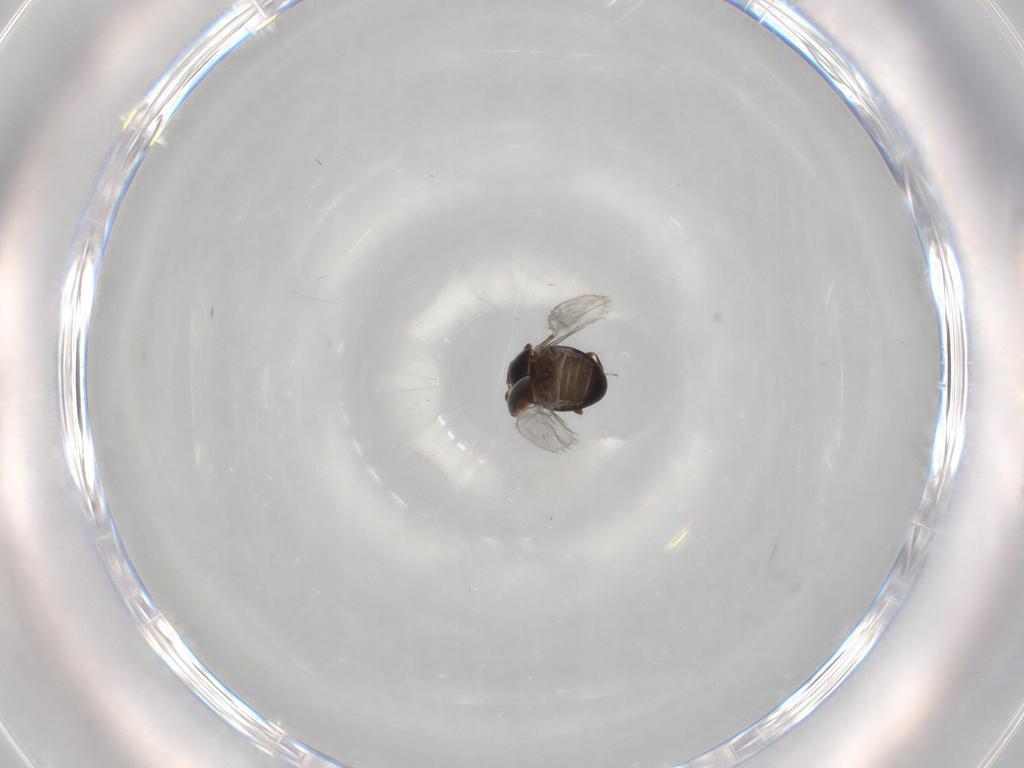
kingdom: Animalia
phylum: Arthropoda
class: Insecta
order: Coleoptera
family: Corylophidae
